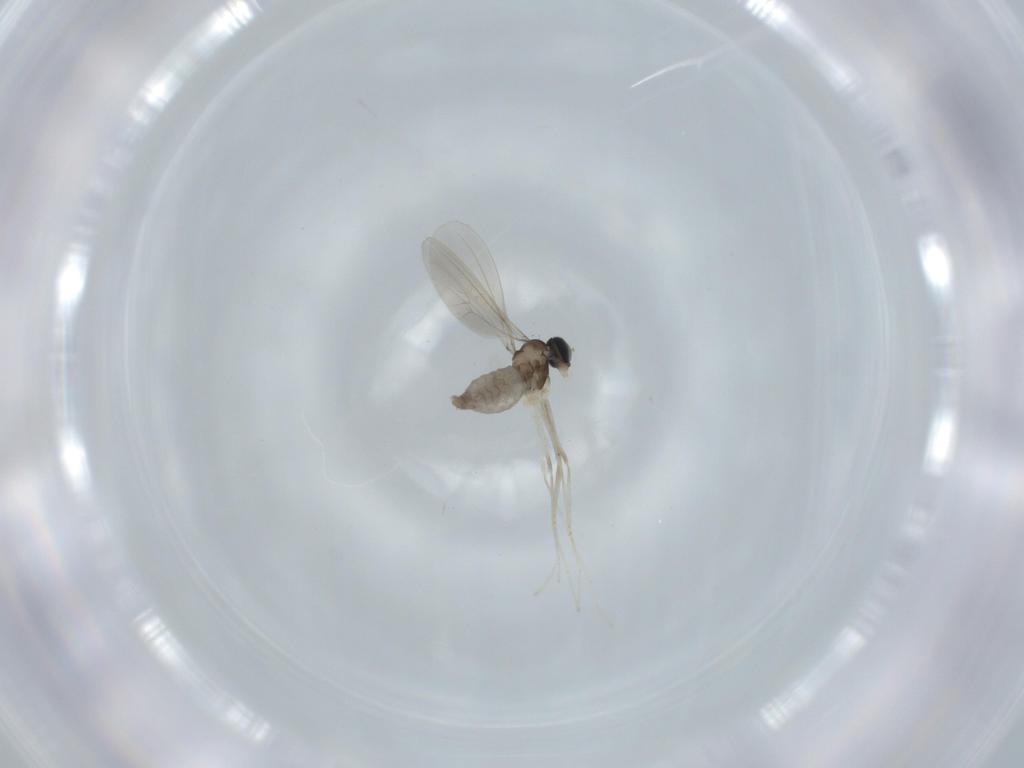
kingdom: Animalia
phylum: Arthropoda
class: Insecta
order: Diptera
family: Cecidomyiidae
